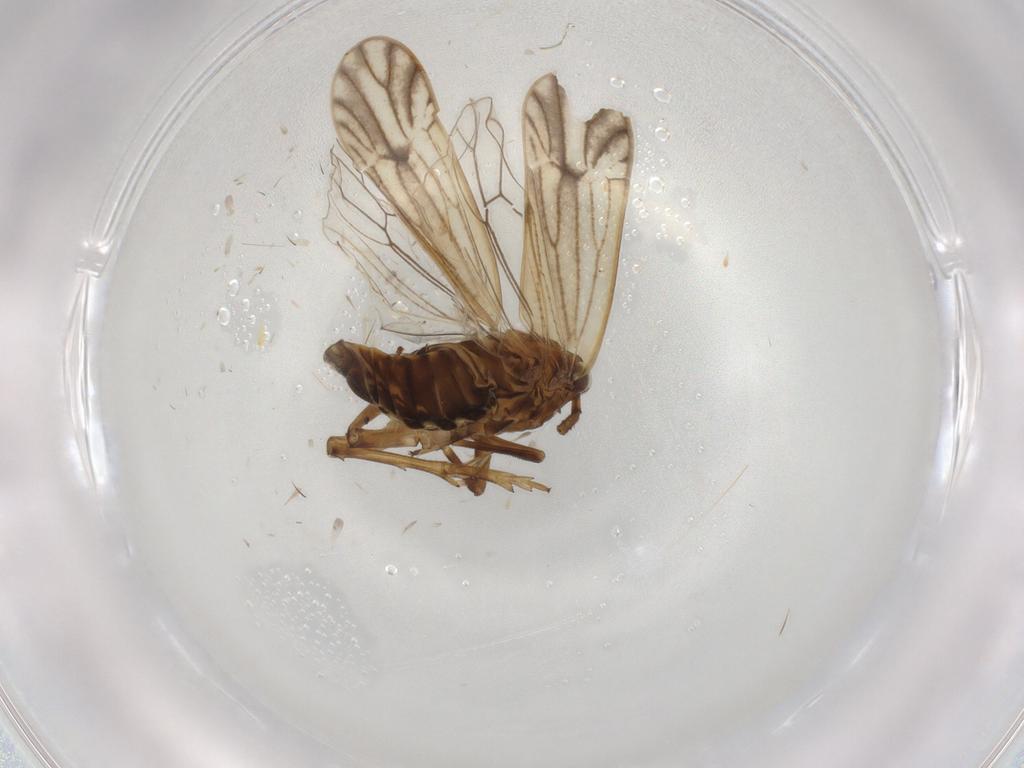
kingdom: Animalia
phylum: Arthropoda
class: Insecta
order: Hemiptera
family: Delphacidae
